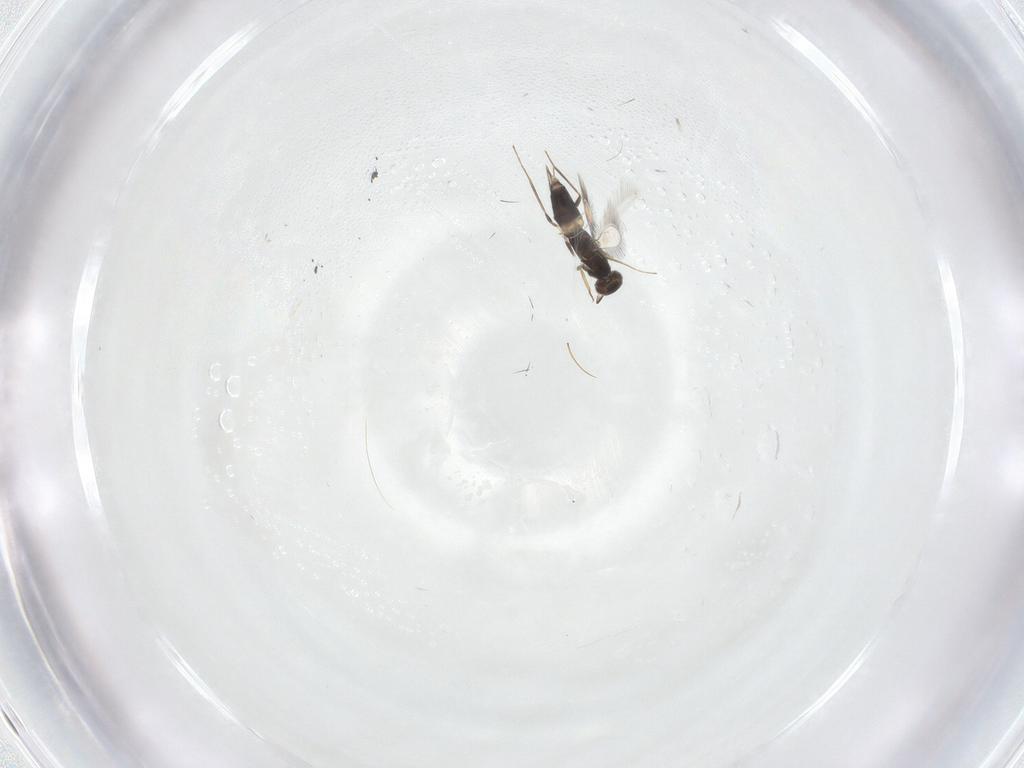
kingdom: Animalia
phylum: Arthropoda
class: Insecta
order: Hymenoptera
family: Mymaridae
